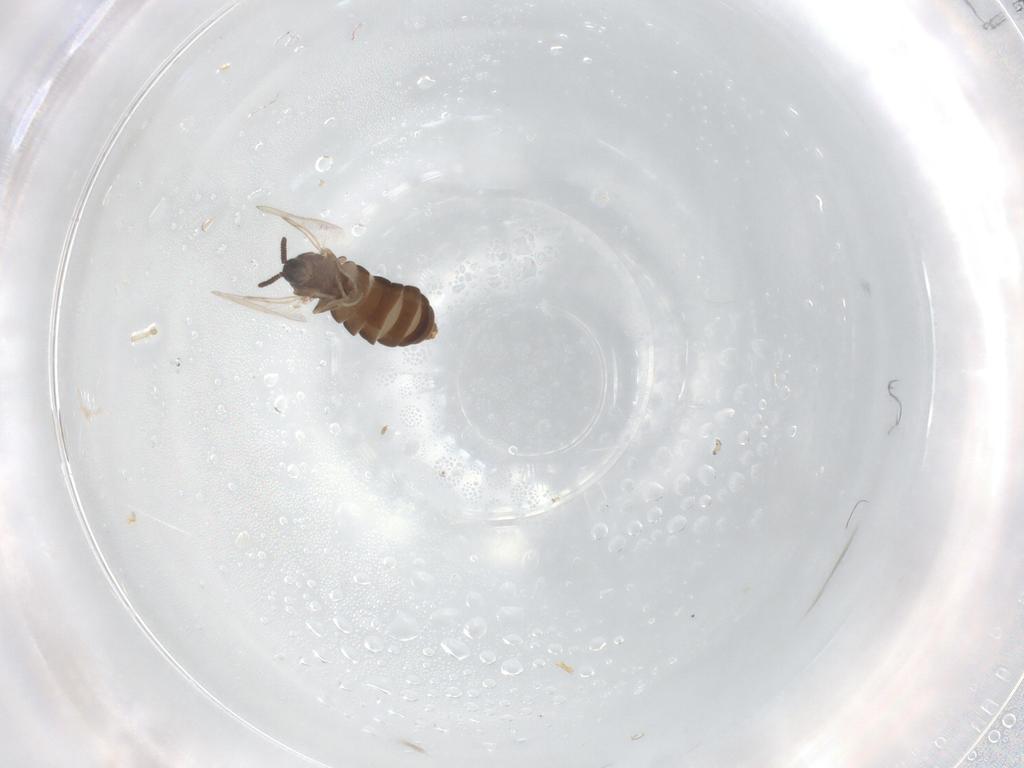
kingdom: Animalia
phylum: Arthropoda
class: Insecta
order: Diptera
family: Scatopsidae
